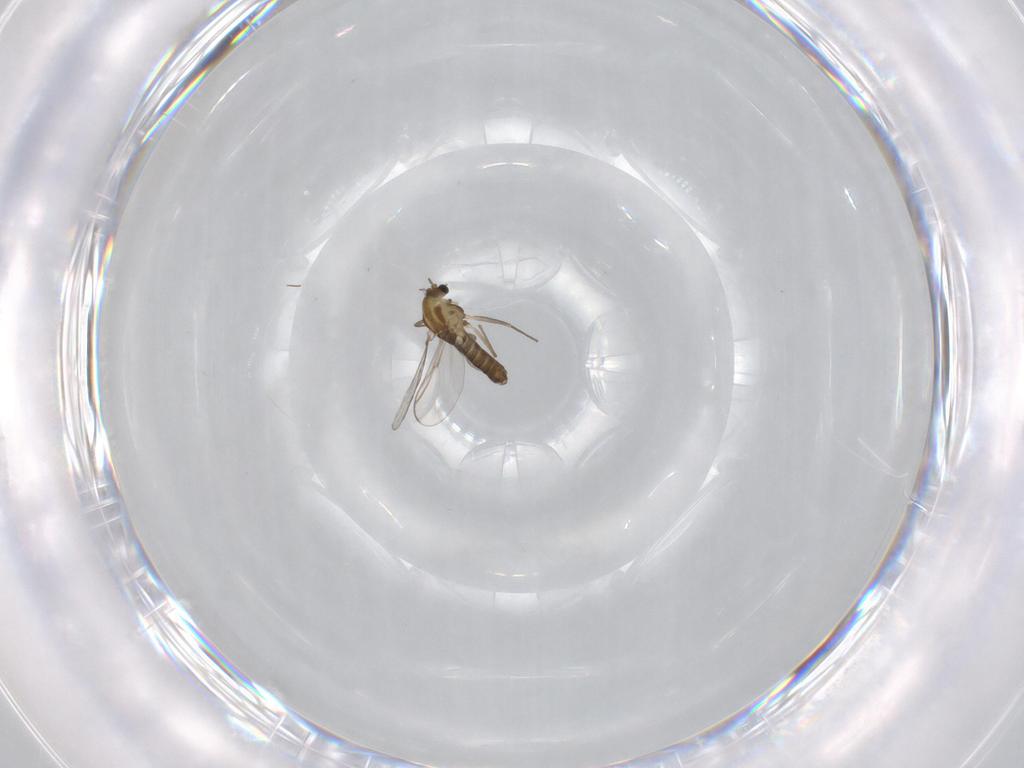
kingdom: Animalia
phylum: Arthropoda
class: Insecta
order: Diptera
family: Chironomidae
